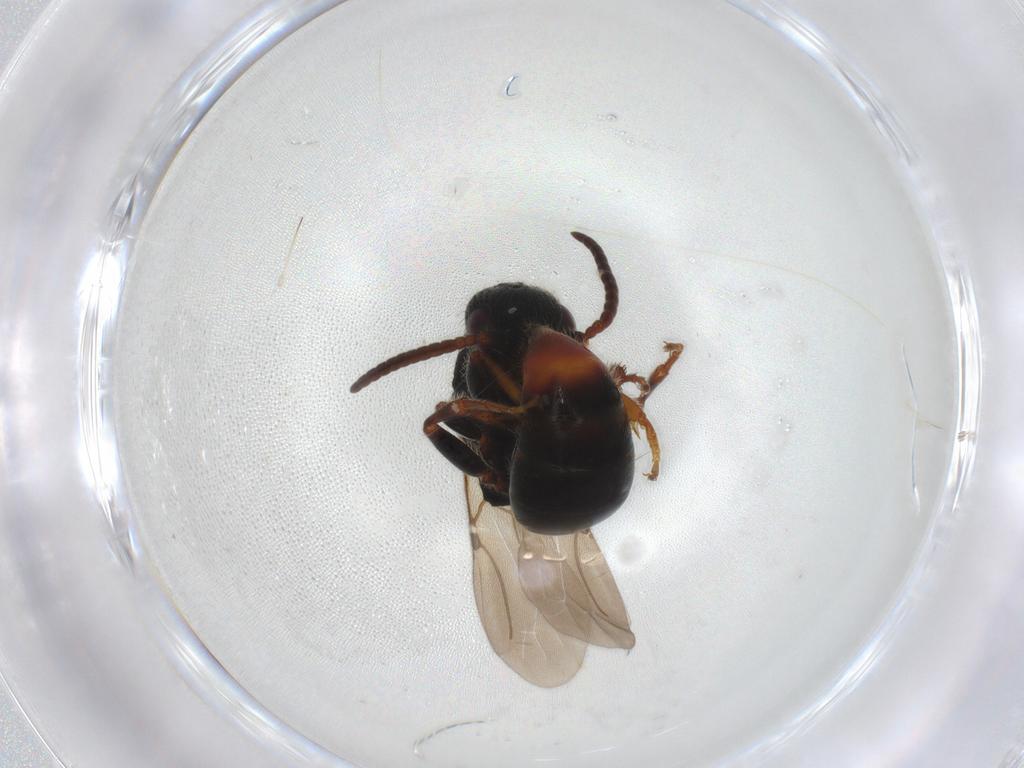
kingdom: Animalia
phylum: Arthropoda
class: Insecta
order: Hymenoptera
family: Bethylidae
